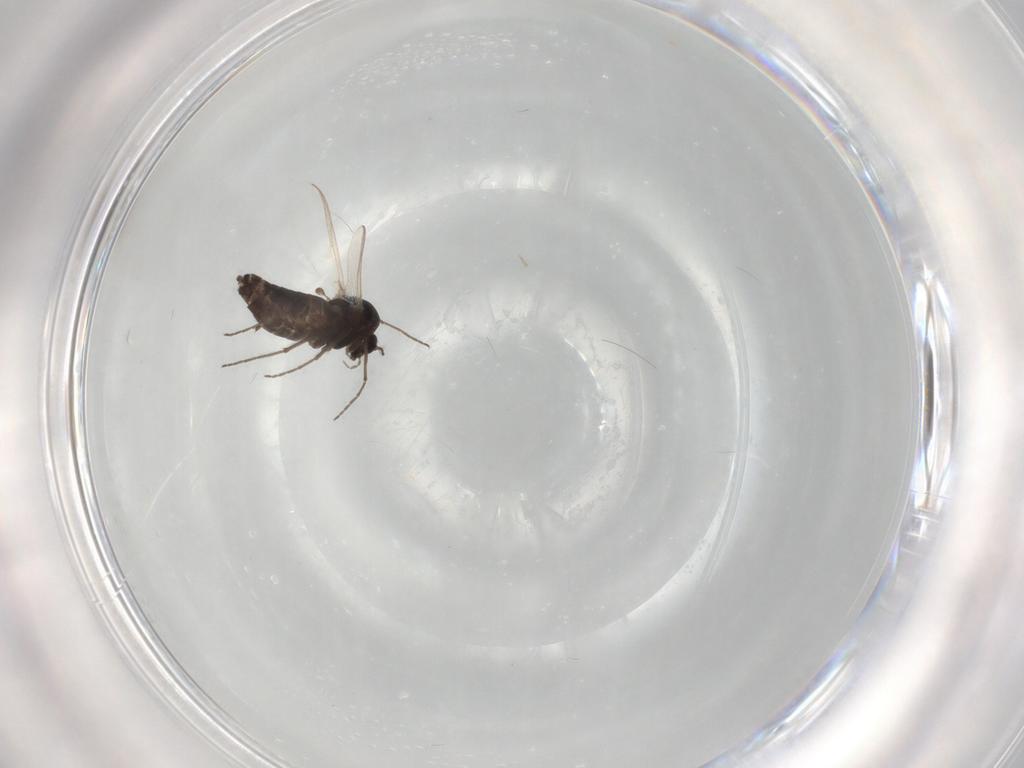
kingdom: Animalia
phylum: Arthropoda
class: Insecta
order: Diptera
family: Chironomidae
